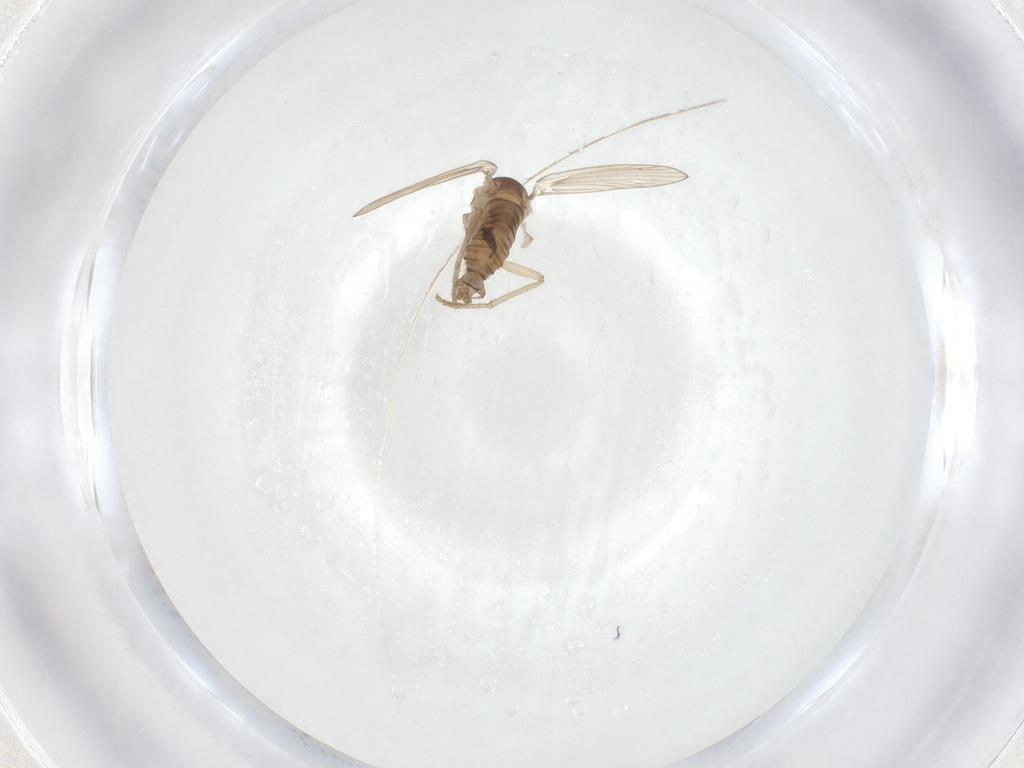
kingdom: Animalia
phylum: Arthropoda
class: Insecta
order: Diptera
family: Psychodidae
